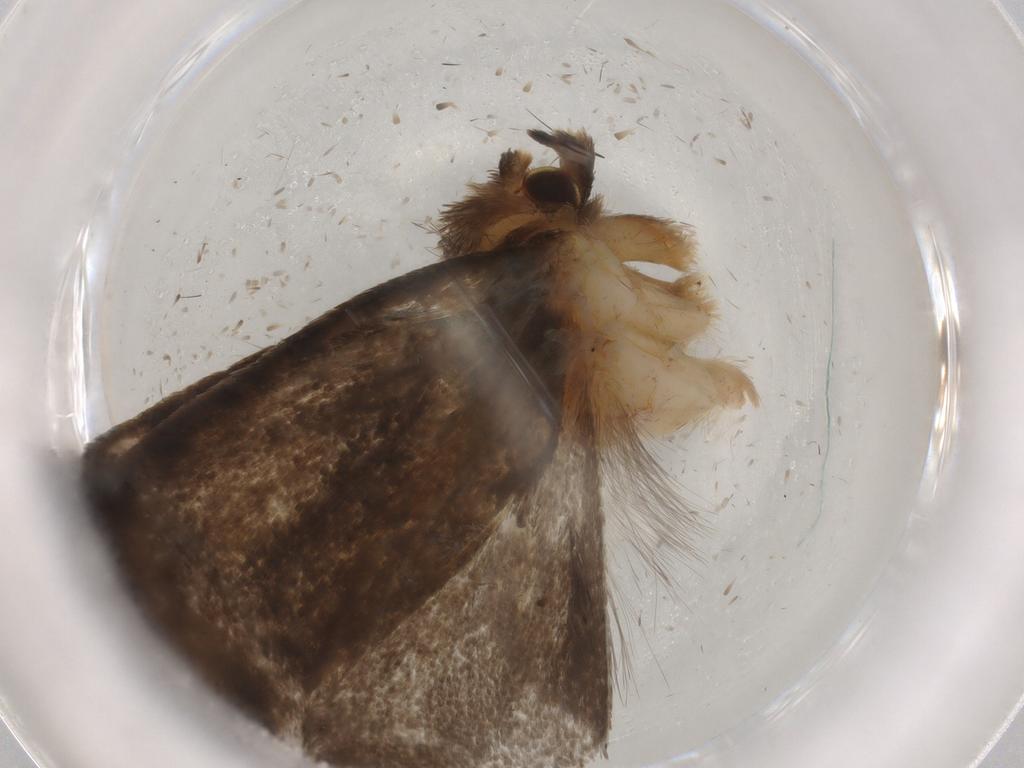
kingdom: Animalia
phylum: Arthropoda
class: Insecta
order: Lepidoptera
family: Tineidae
